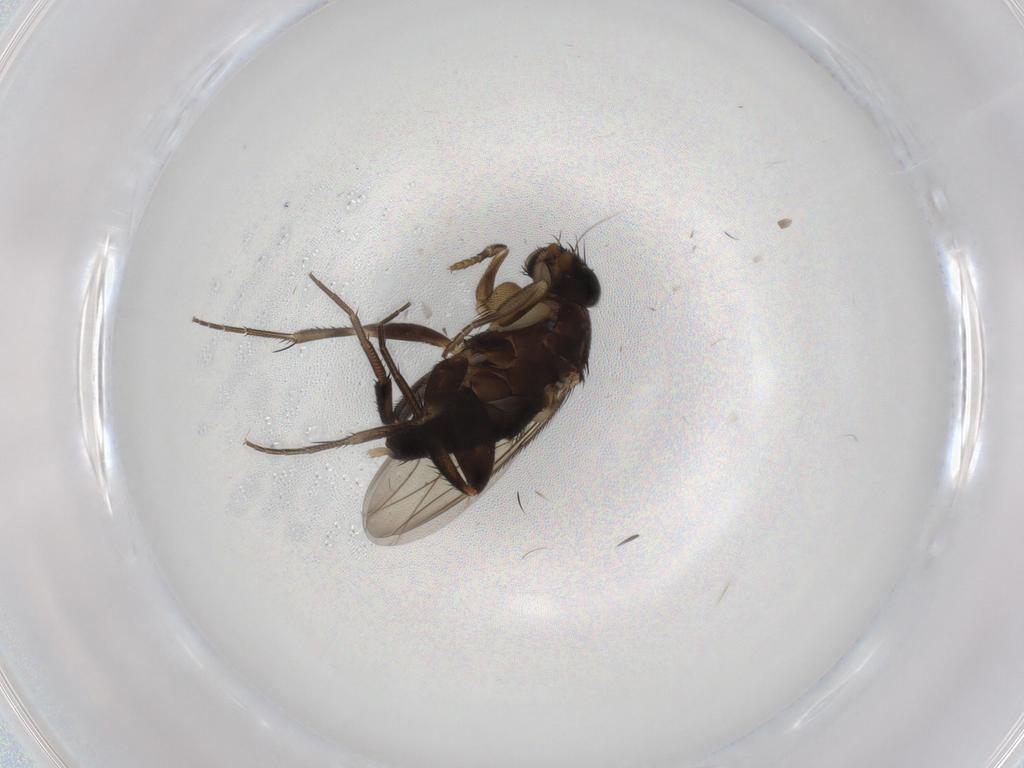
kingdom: Animalia
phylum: Arthropoda
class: Insecta
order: Diptera
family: Phoridae
